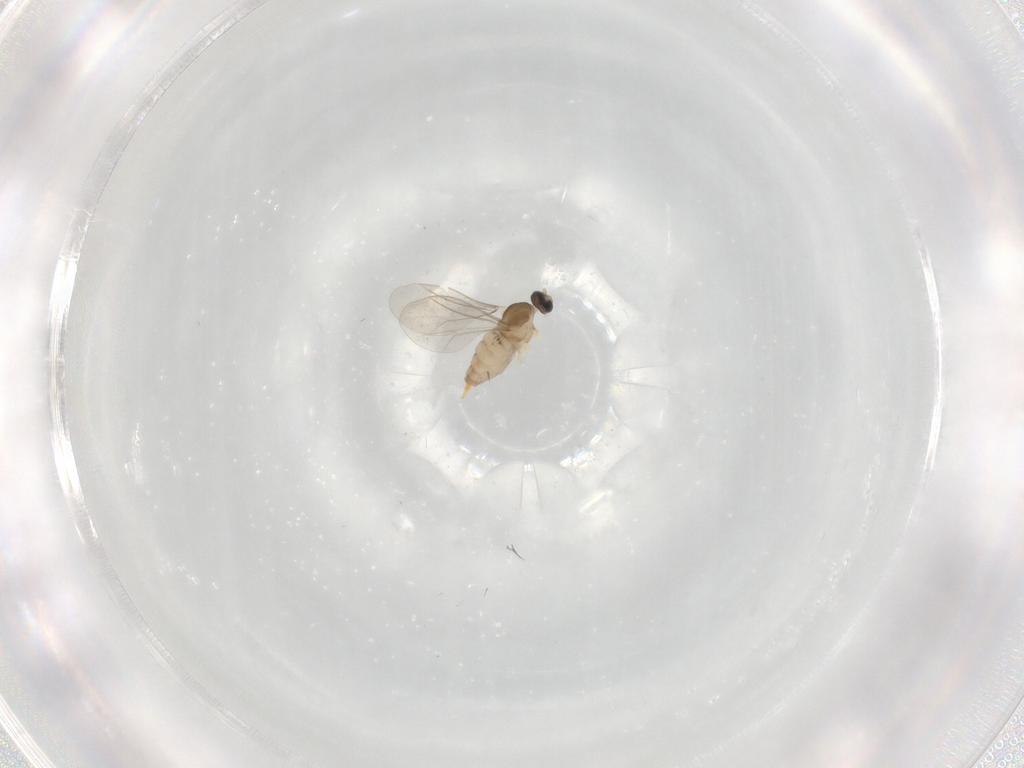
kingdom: Animalia
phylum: Arthropoda
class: Insecta
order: Diptera
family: Cecidomyiidae
